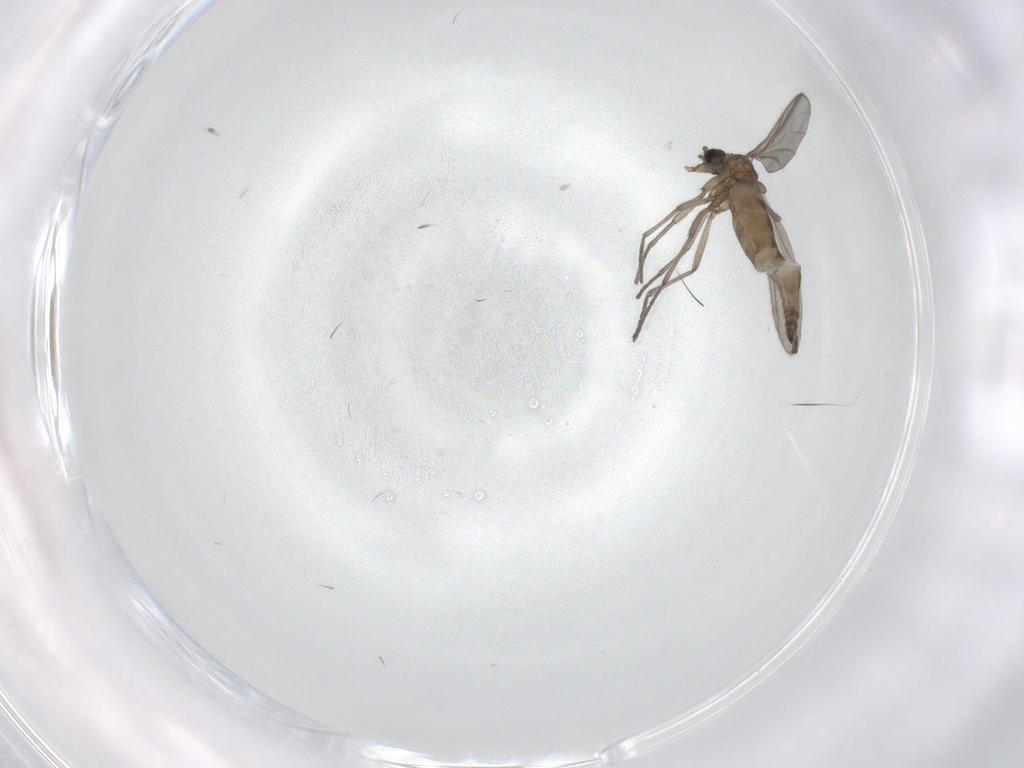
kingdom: Animalia
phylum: Arthropoda
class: Insecta
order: Diptera
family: Sciaridae
